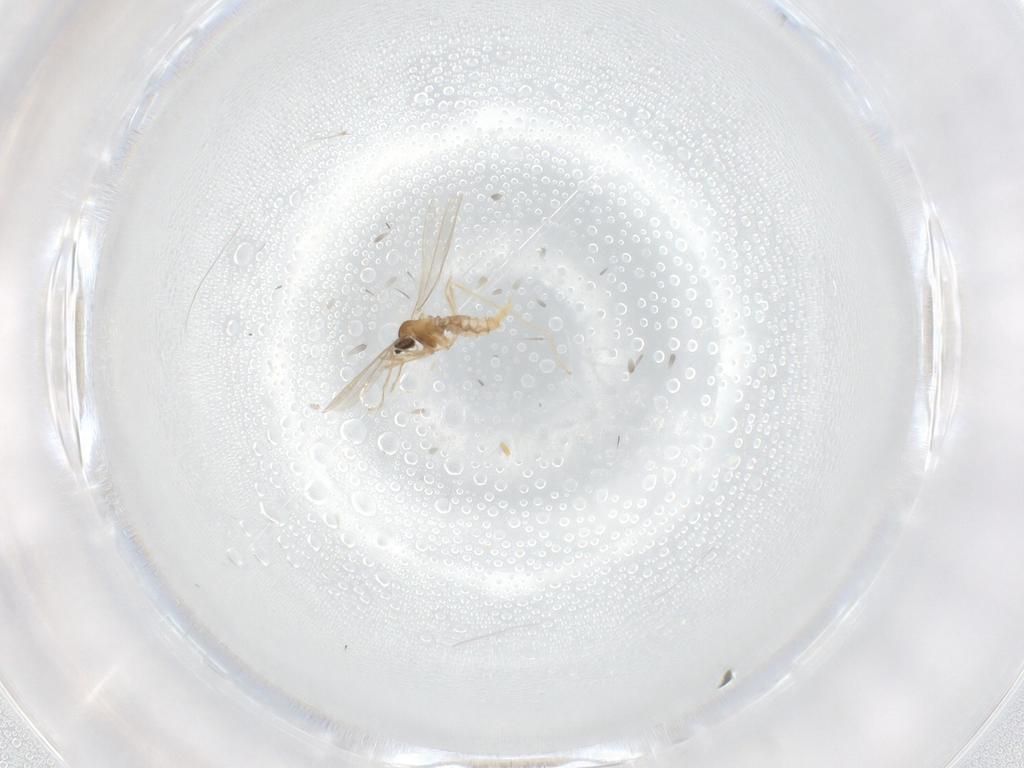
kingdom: Animalia
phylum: Arthropoda
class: Insecta
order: Diptera
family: Cecidomyiidae
